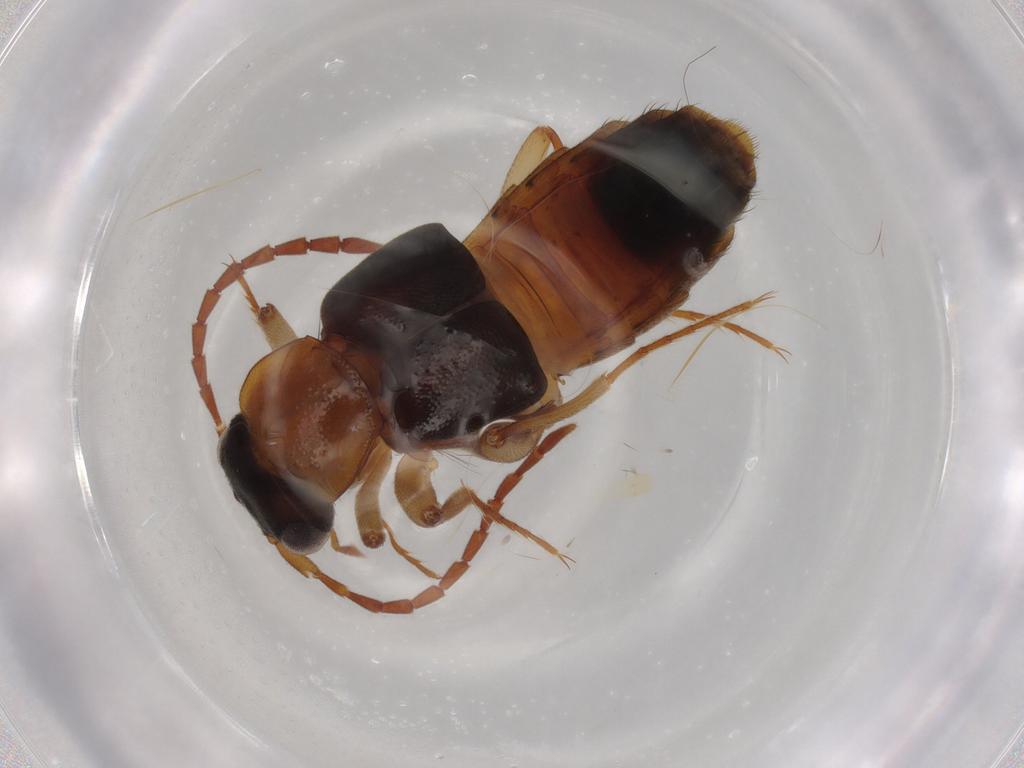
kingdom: Animalia
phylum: Arthropoda
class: Insecta
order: Coleoptera
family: Staphylinidae
